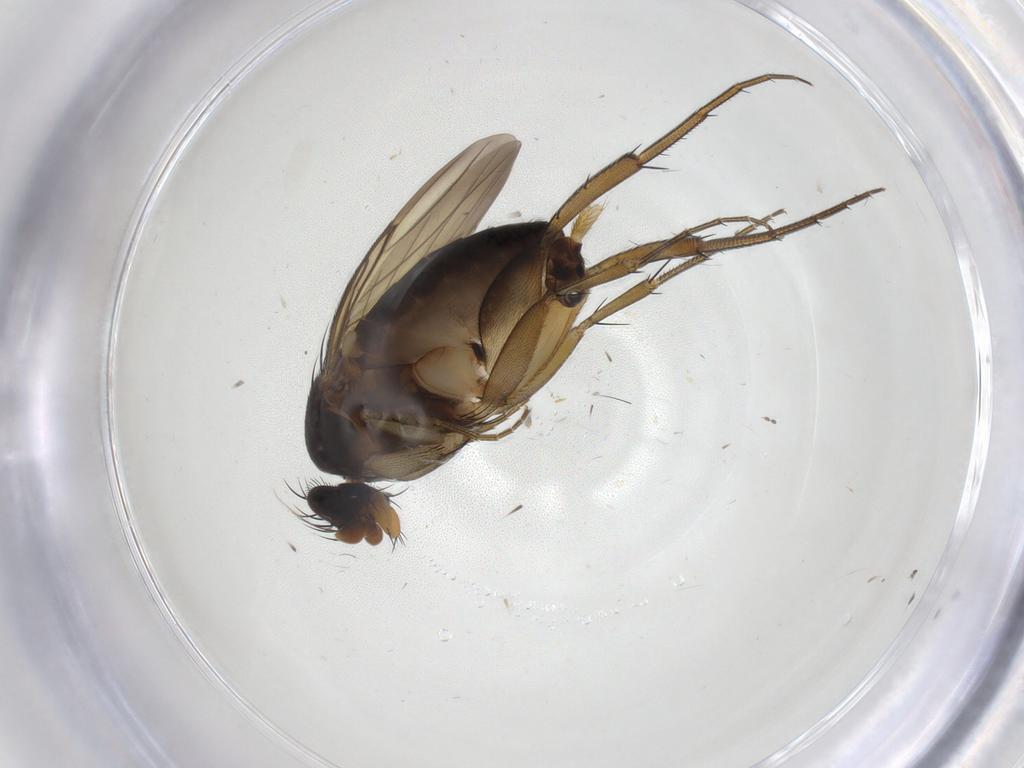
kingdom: Animalia
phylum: Arthropoda
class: Insecta
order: Diptera
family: Phoridae
